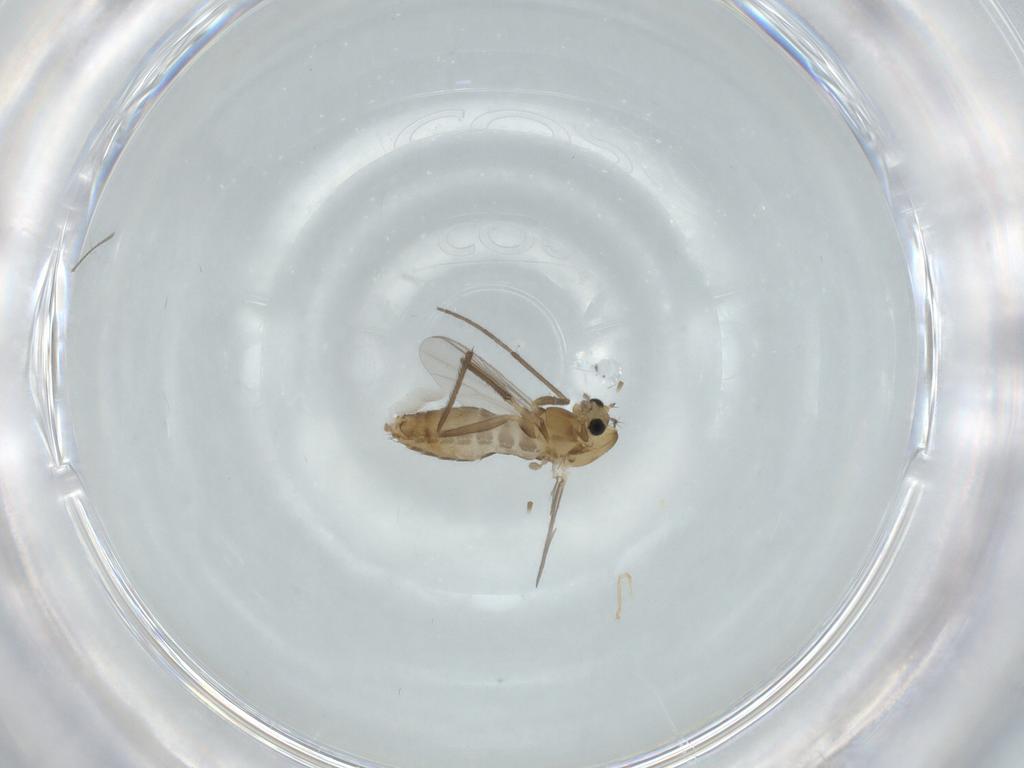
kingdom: Animalia
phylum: Arthropoda
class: Insecta
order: Diptera
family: Chironomidae
